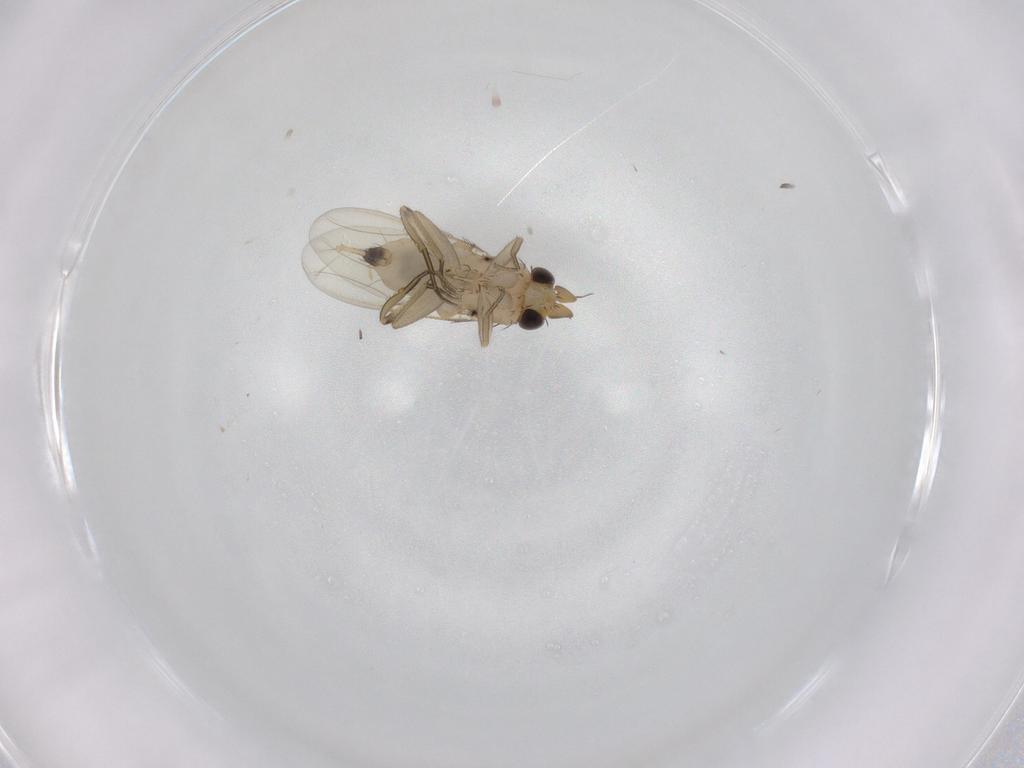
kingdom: Animalia
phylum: Arthropoda
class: Insecta
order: Diptera
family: Phoridae
